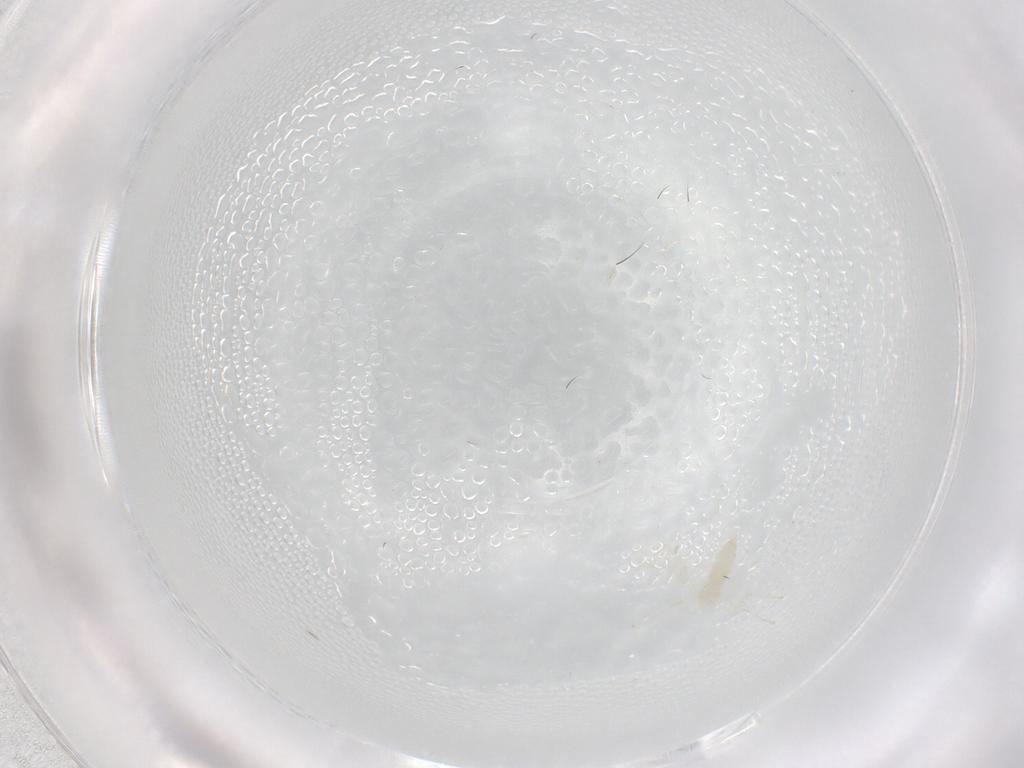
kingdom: Animalia
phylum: Arthropoda
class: Insecta
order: Diptera
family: Cecidomyiidae
